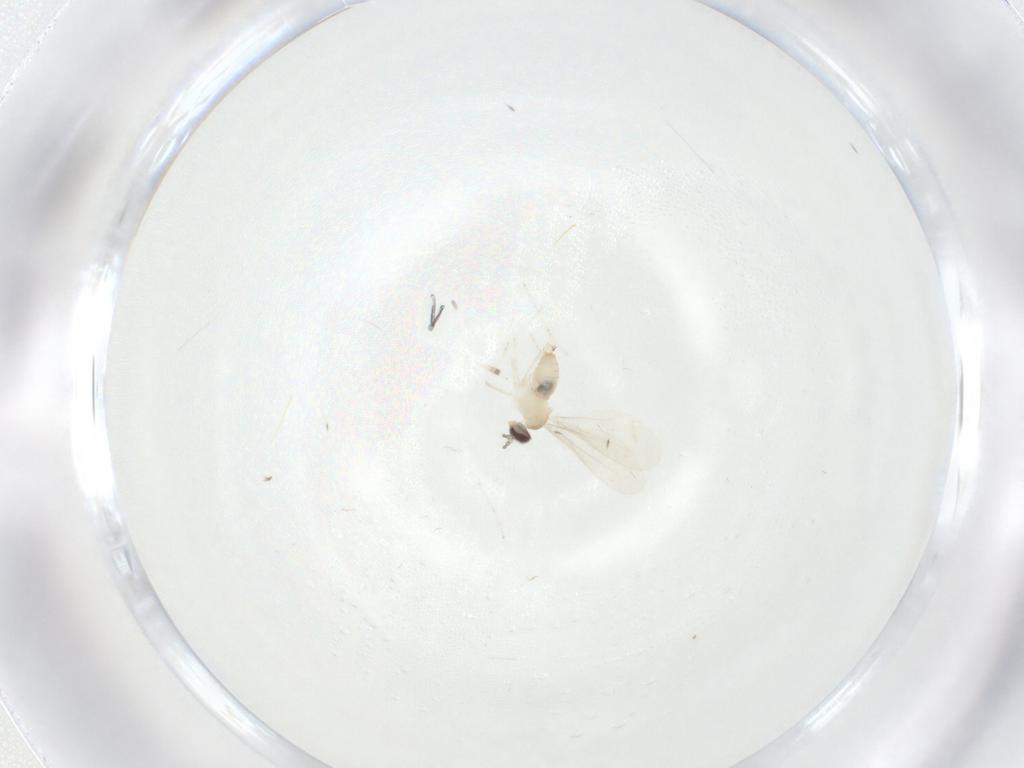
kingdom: Animalia
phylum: Arthropoda
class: Insecta
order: Diptera
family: Cecidomyiidae
